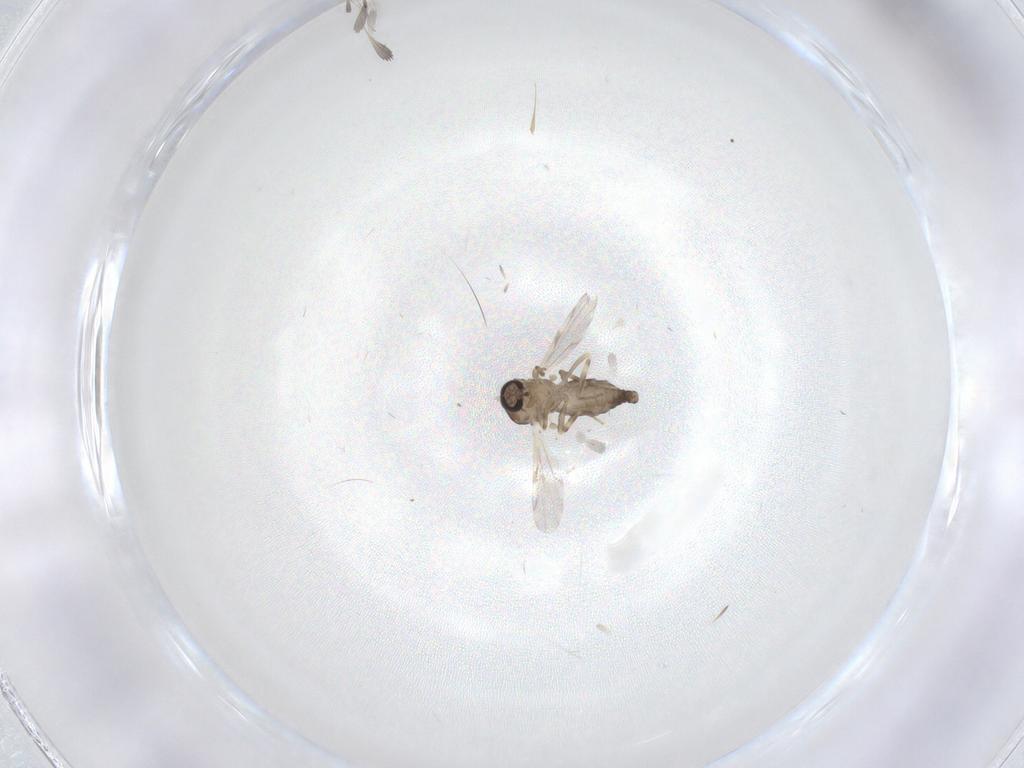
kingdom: Animalia
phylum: Arthropoda
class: Insecta
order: Diptera
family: Ceratopogonidae
